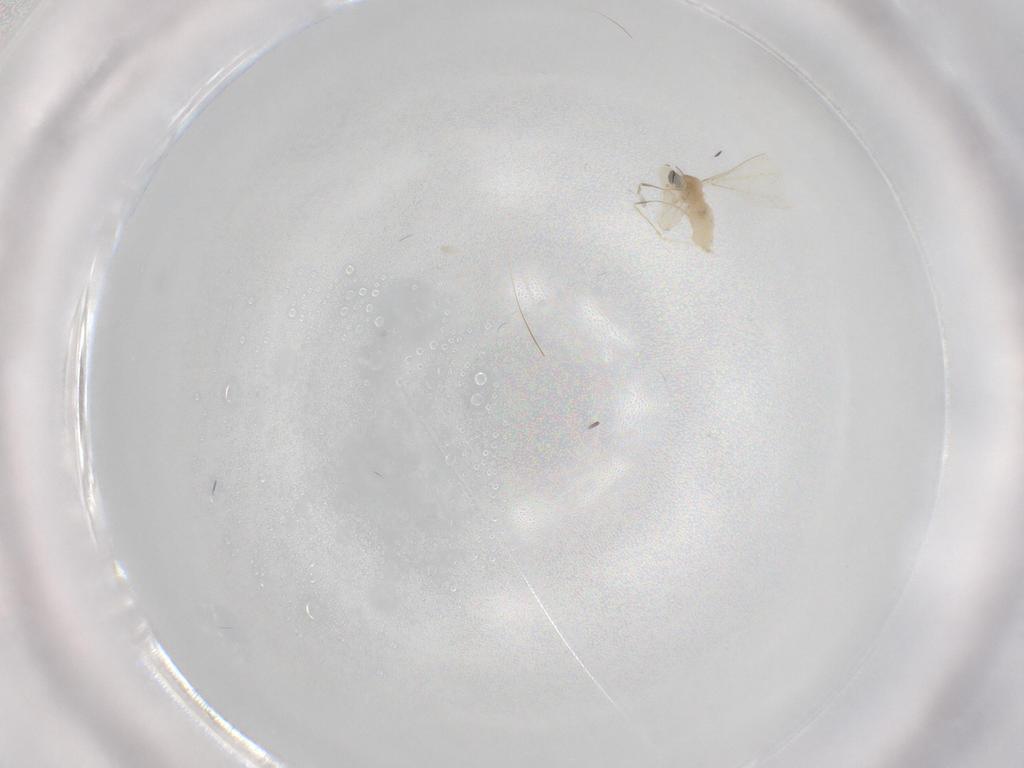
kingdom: Animalia
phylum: Arthropoda
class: Insecta
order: Diptera
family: Cecidomyiidae
